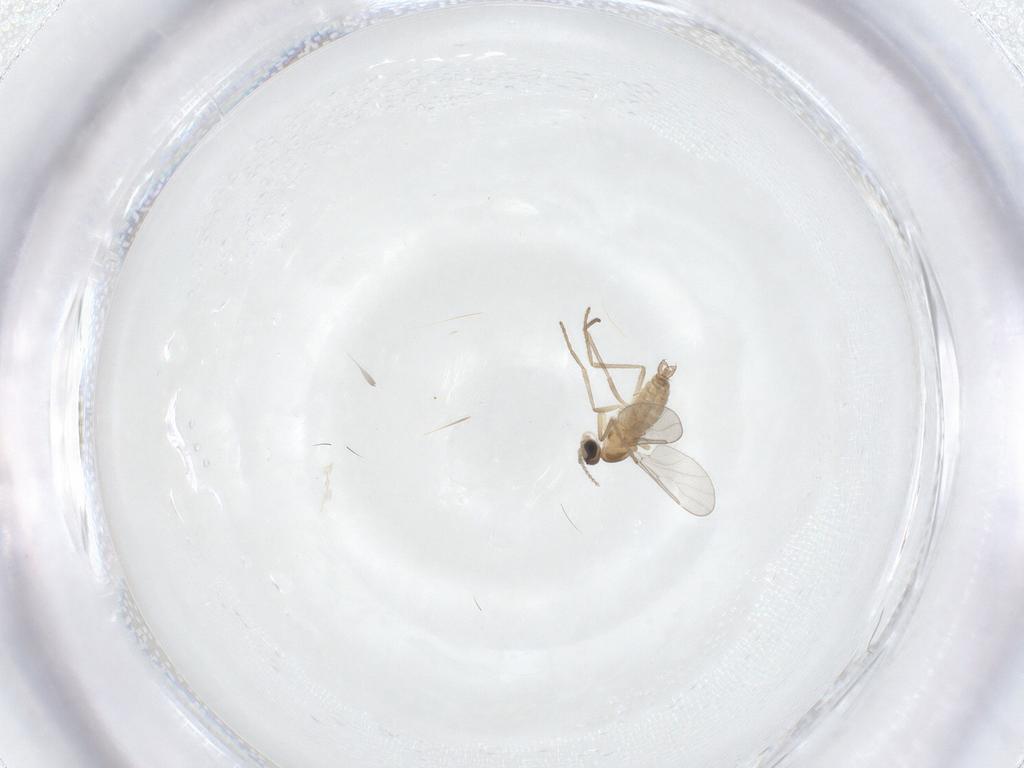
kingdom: Animalia
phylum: Arthropoda
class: Insecta
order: Diptera
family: Cecidomyiidae
